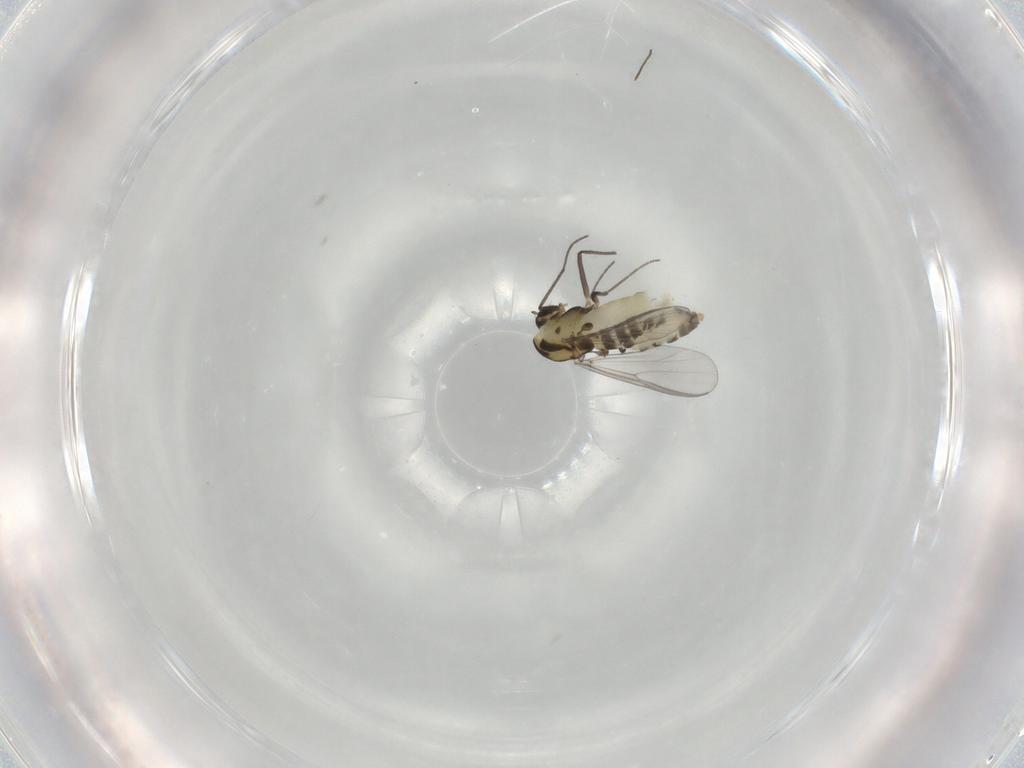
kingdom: Animalia
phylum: Arthropoda
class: Insecta
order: Diptera
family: Chironomidae
